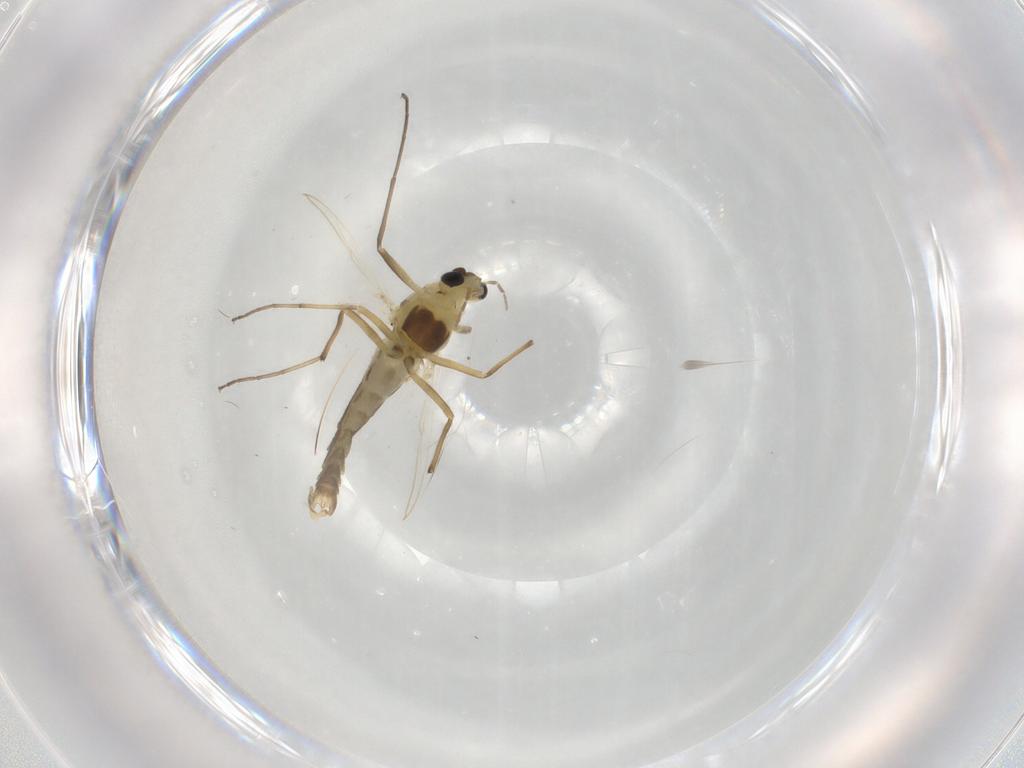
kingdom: Animalia
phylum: Arthropoda
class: Insecta
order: Diptera
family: Chironomidae
